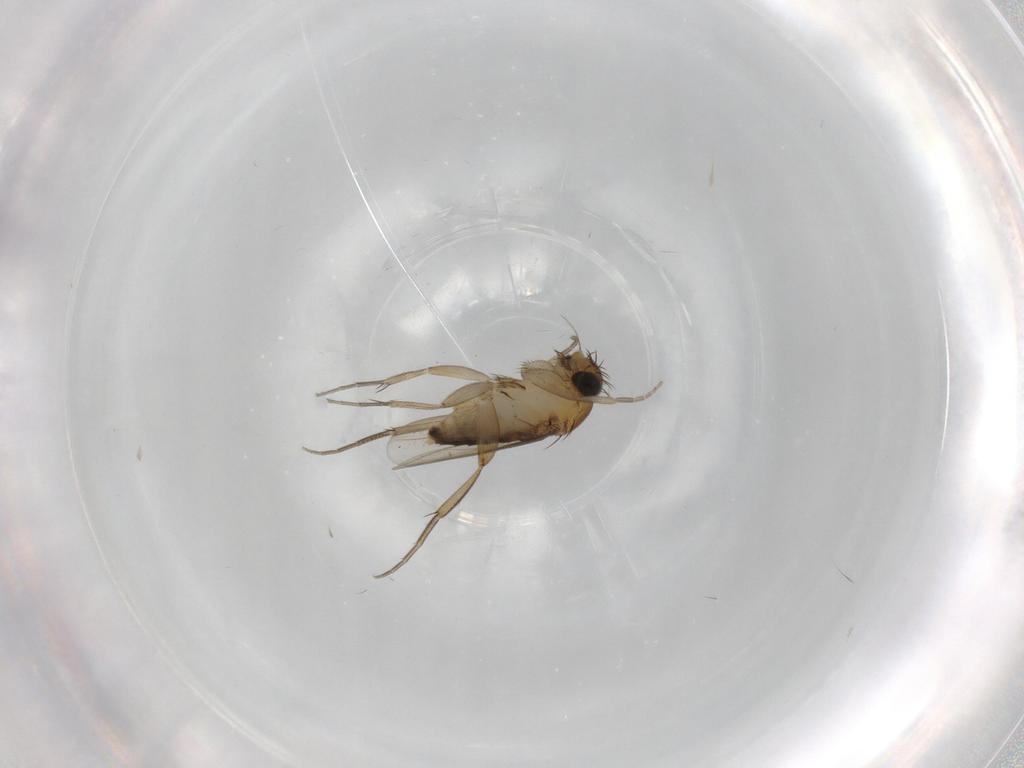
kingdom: Animalia
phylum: Arthropoda
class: Insecta
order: Diptera
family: Phoridae
